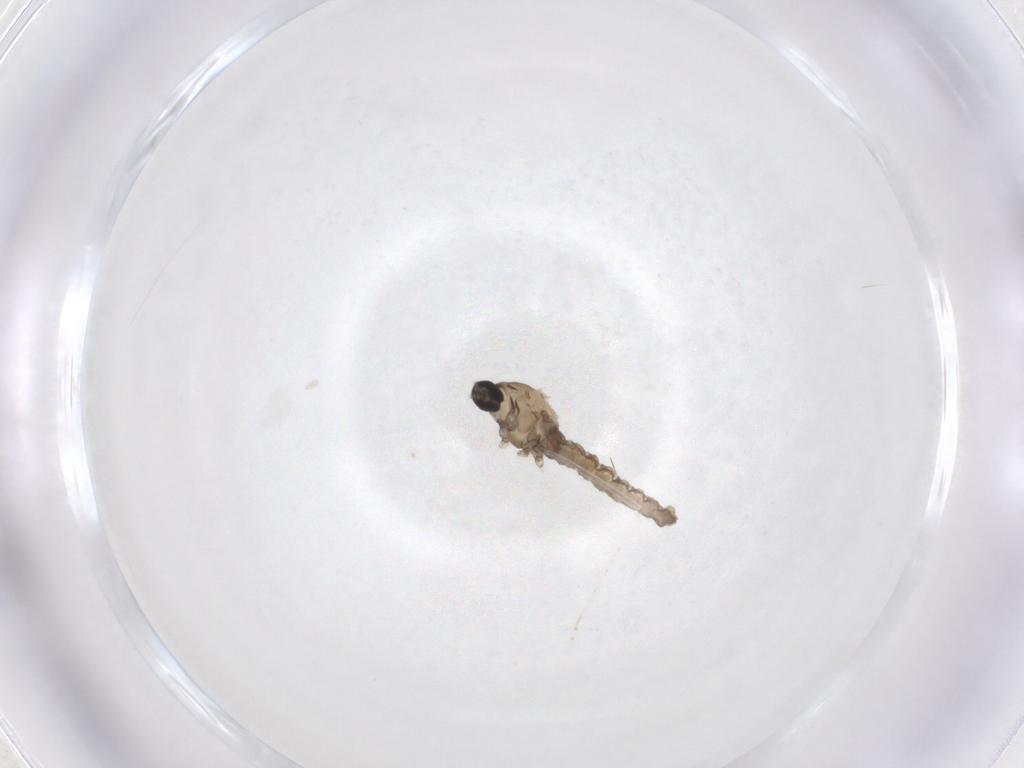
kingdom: Animalia
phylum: Arthropoda
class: Insecta
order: Diptera
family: Cecidomyiidae
